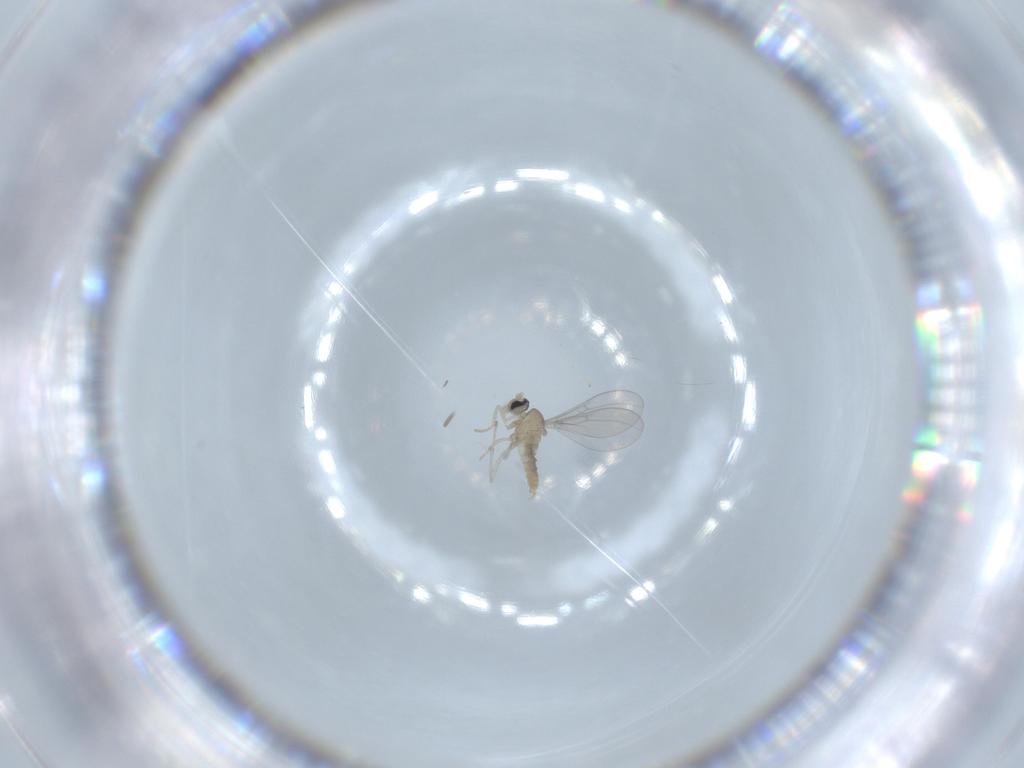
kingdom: Animalia
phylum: Arthropoda
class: Insecta
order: Diptera
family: Cecidomyiidae
